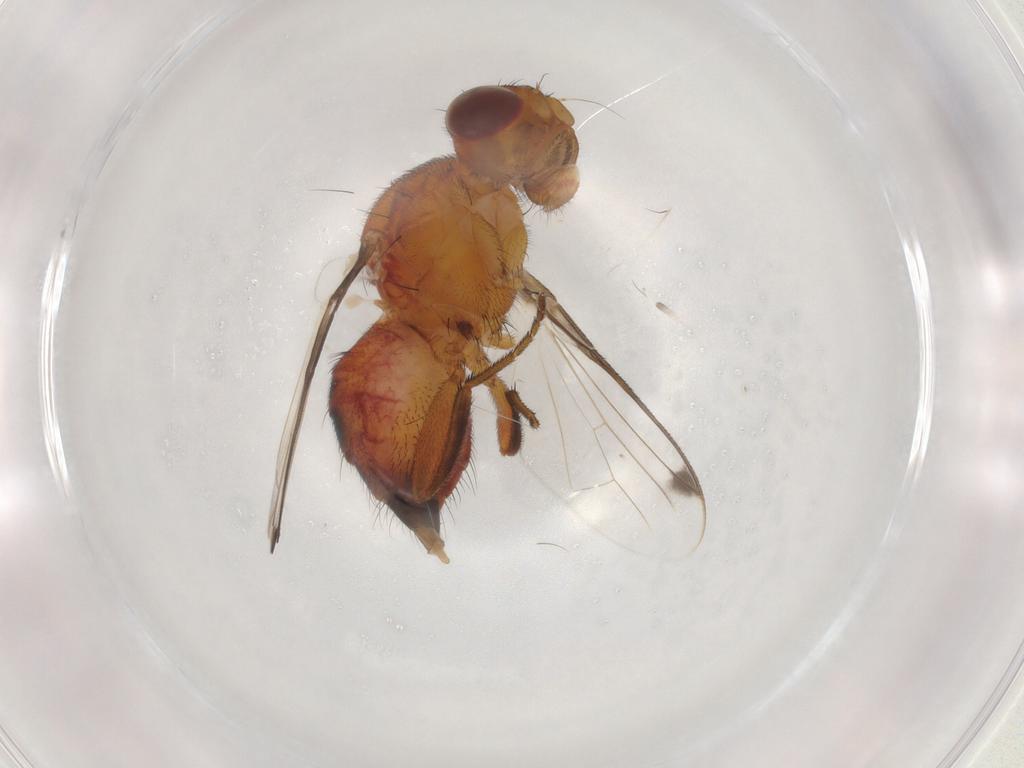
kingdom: Animalia
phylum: Arthropoda
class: Insecta
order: Diptera
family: Richardiidae
